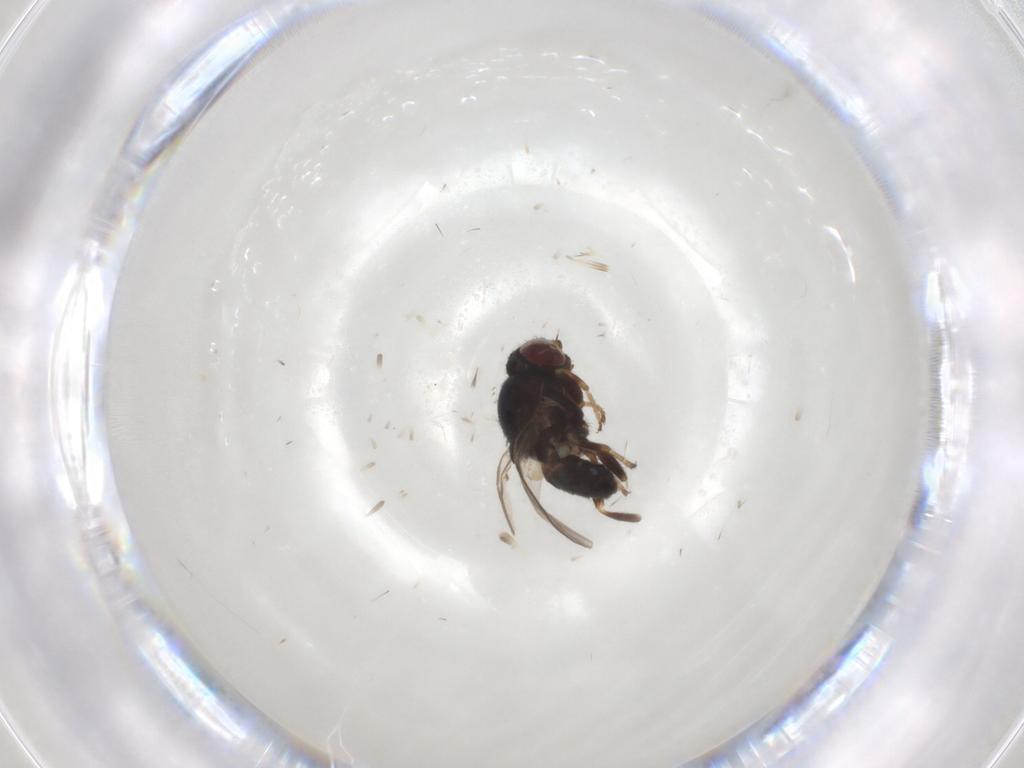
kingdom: Animalia
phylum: Arthropoda
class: Insecta
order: Diptera
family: Chloropidae
